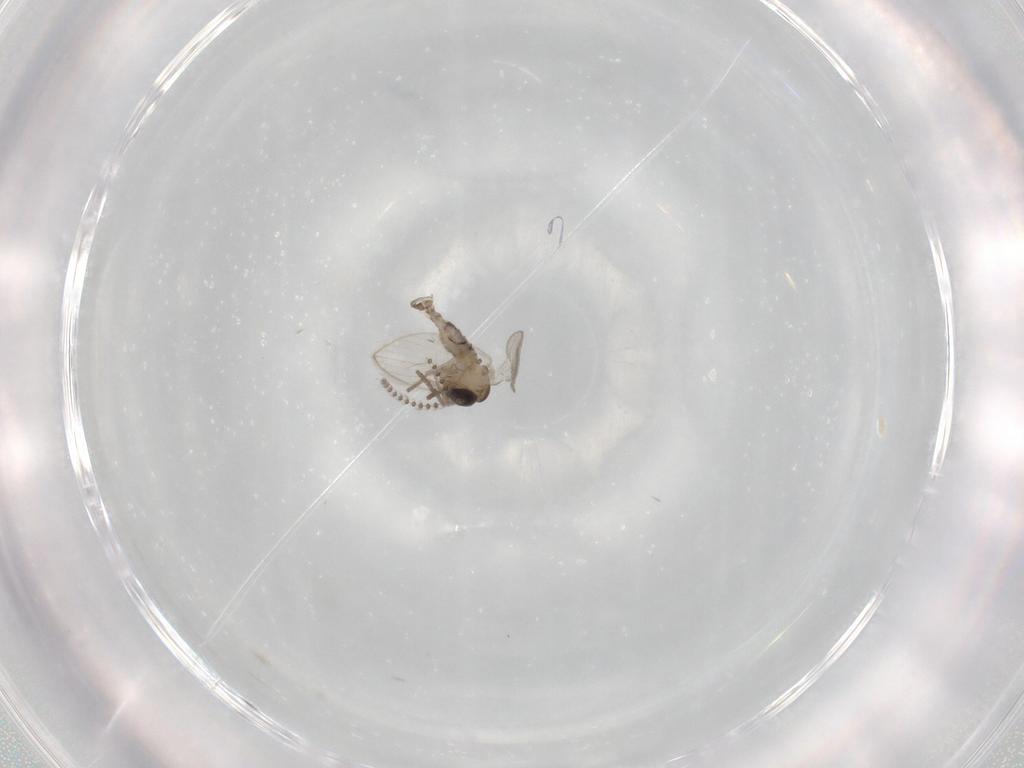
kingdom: Animalia
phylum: Arthropoda
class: Insecta
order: Diptera
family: Psychodidae
